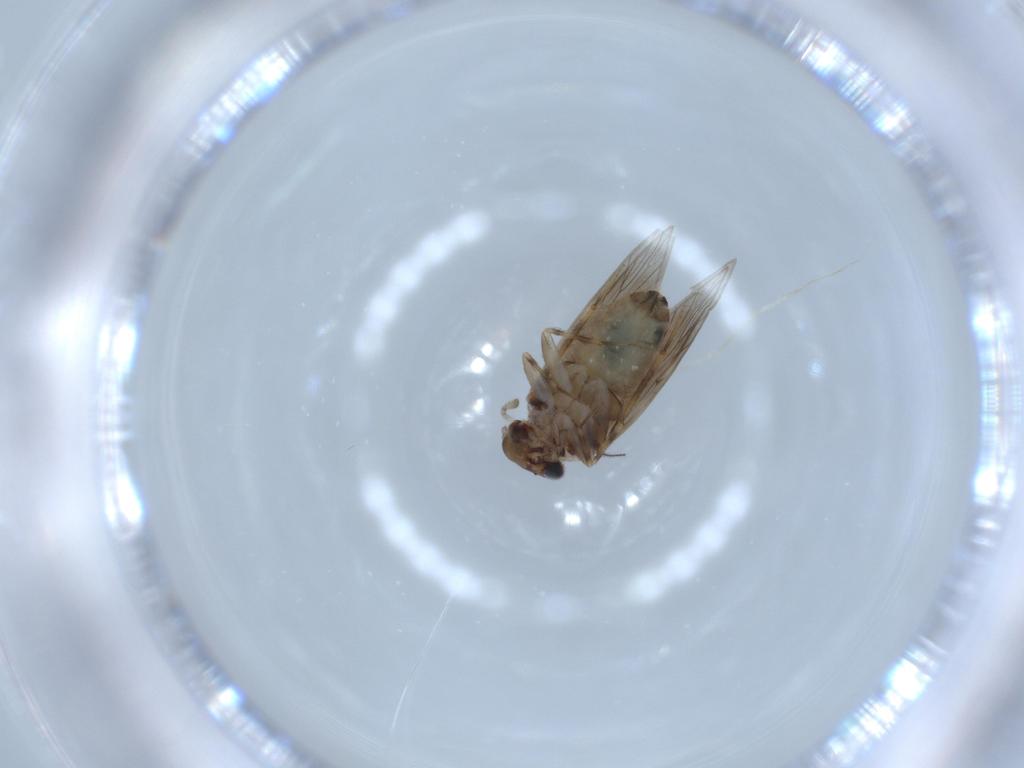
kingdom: Animalia
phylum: Arthropoda
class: Insecta
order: Psocodea
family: Lepidopsocidae
